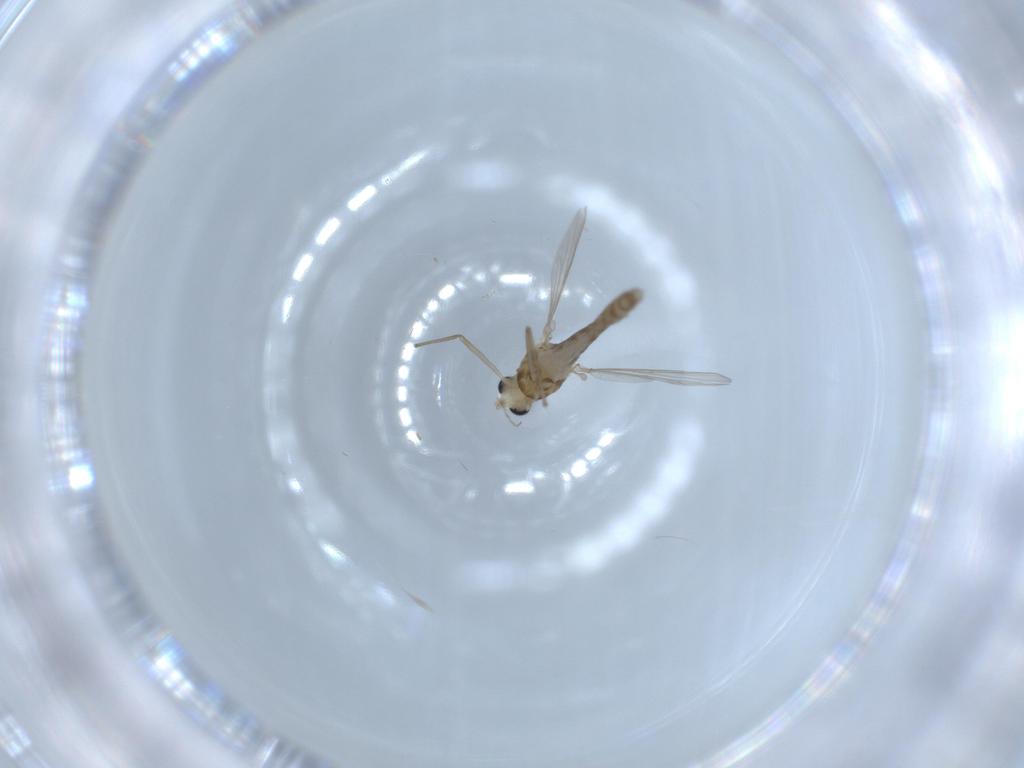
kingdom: Animalia
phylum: Arthropoda
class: Insecta
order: Diptera
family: Chironomidae
